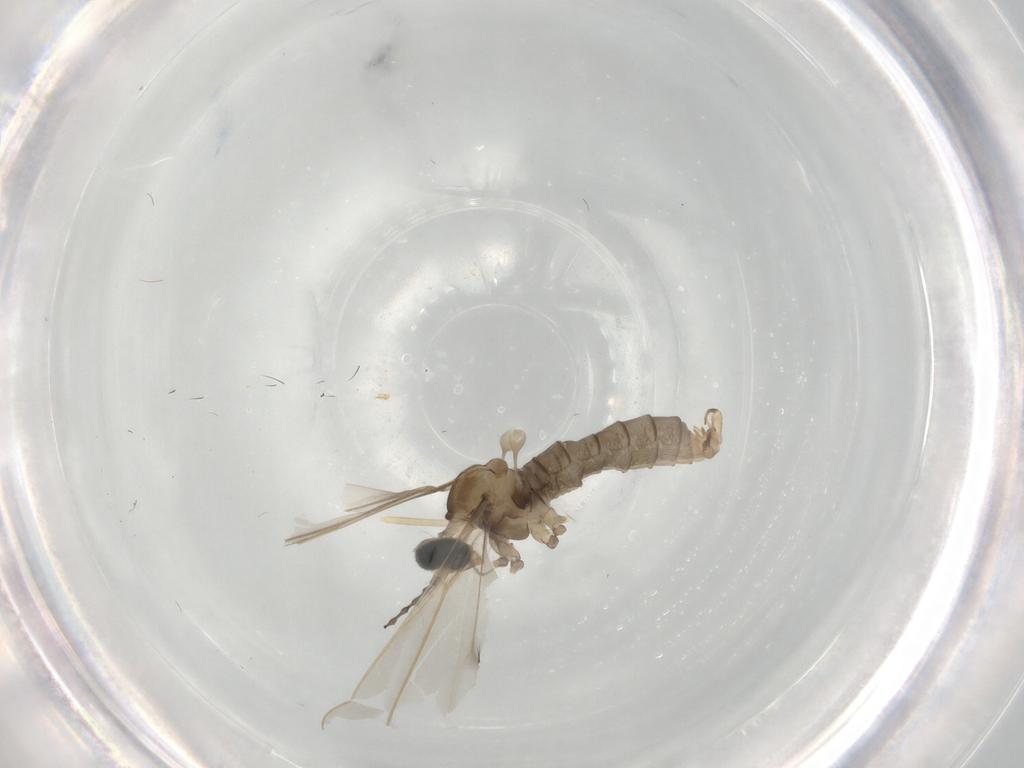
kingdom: Animalia
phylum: Arthropoda
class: Insecta
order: Diptera
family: Cecidomyiidae
